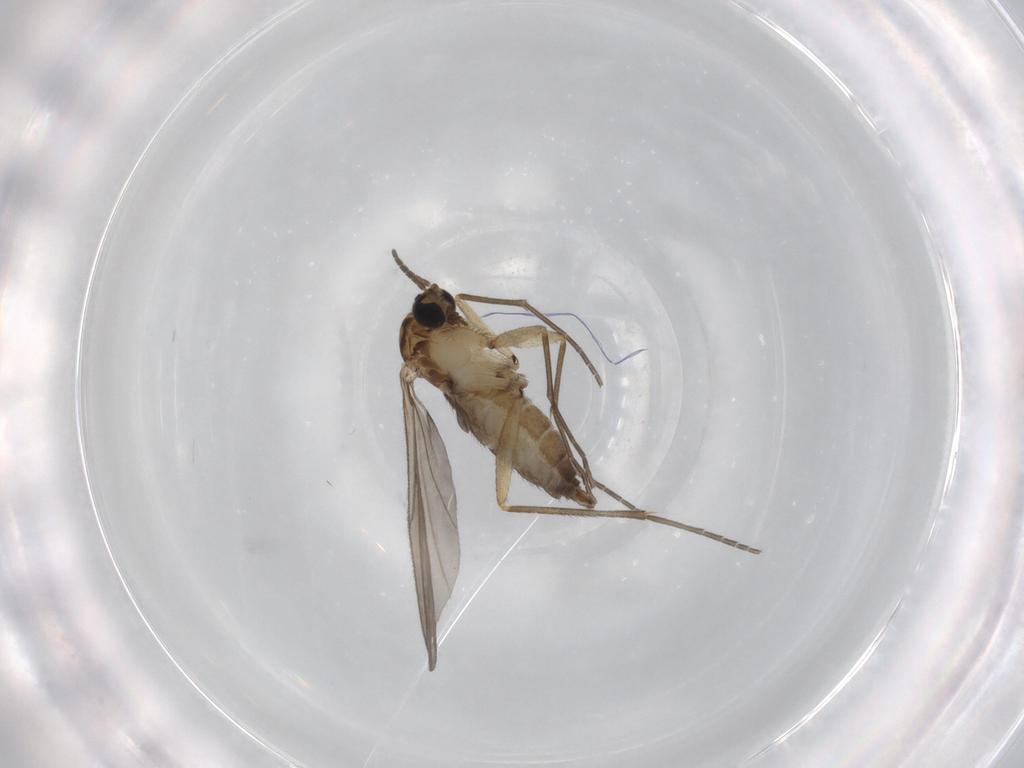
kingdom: Animalia
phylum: Arthropoda
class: Insecta
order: Diptera
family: Sciaridae
